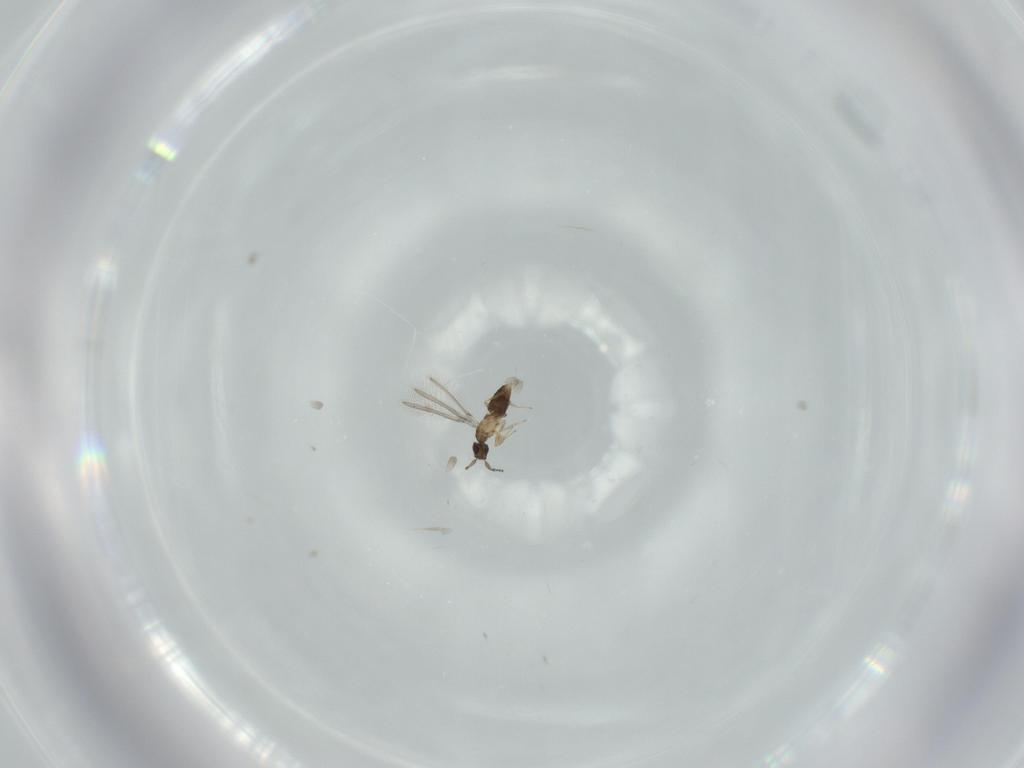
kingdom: Animalia
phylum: Arthropoda
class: Insecta
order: Hymenoptera
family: Mymaridae
